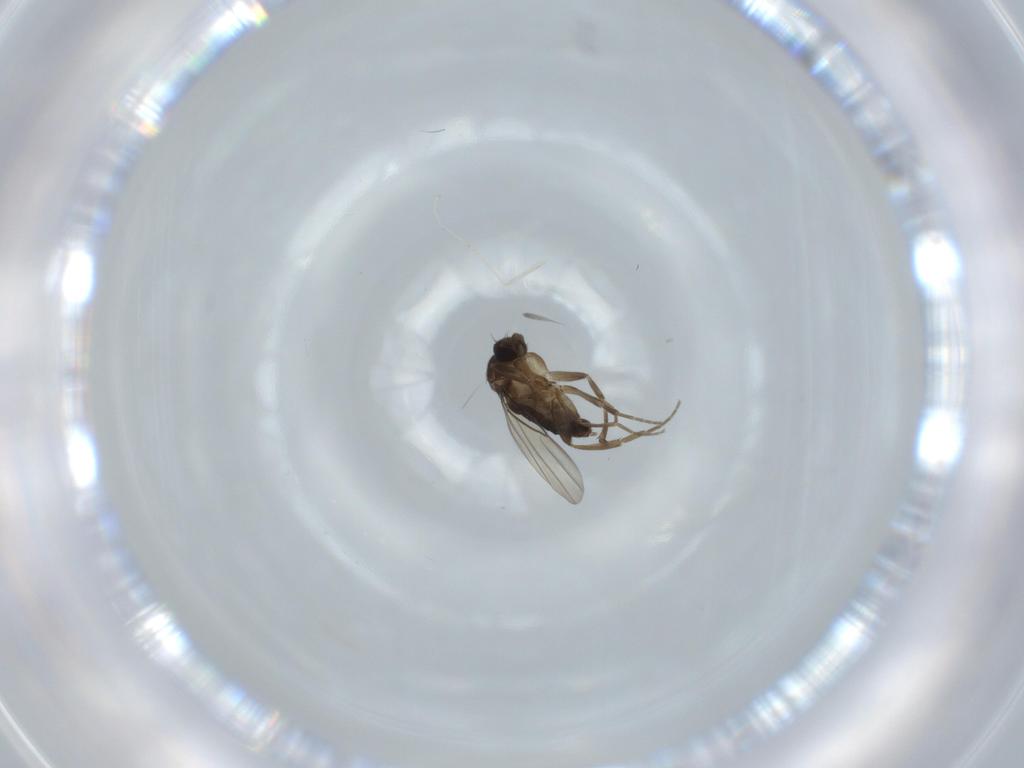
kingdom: Animalia
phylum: Arthropoda
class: Insecta
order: Diptera
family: Phoridae
